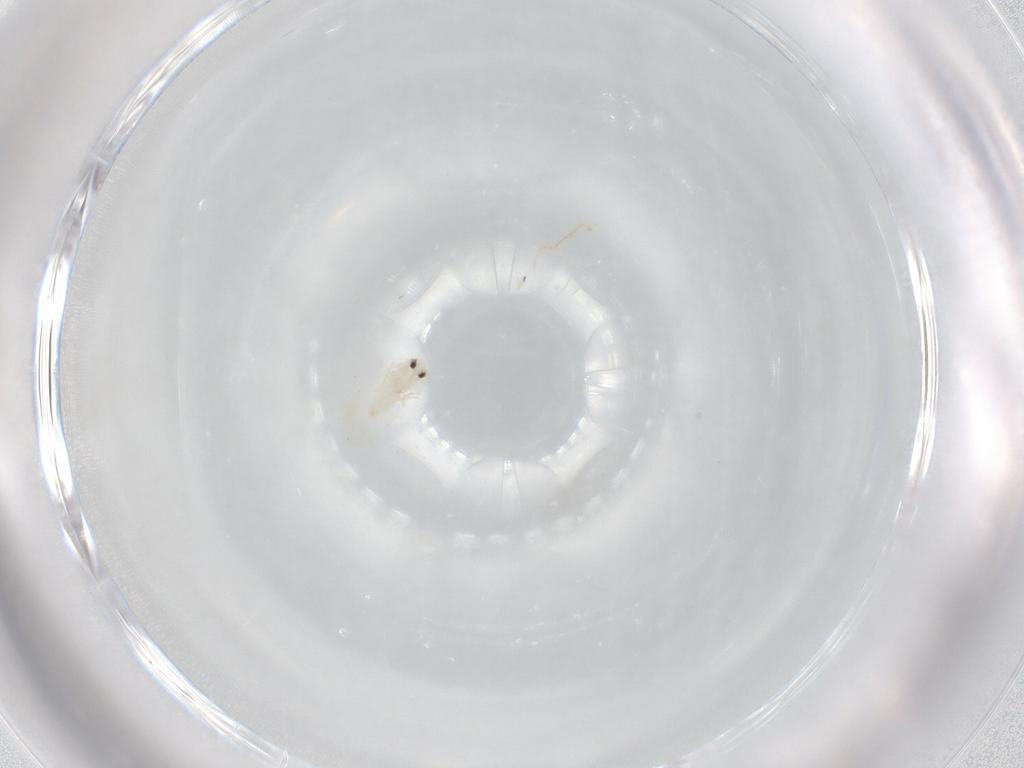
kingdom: Animalia
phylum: Arthropoda
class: Insecta
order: Hemiptera
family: Aleyrodidae
